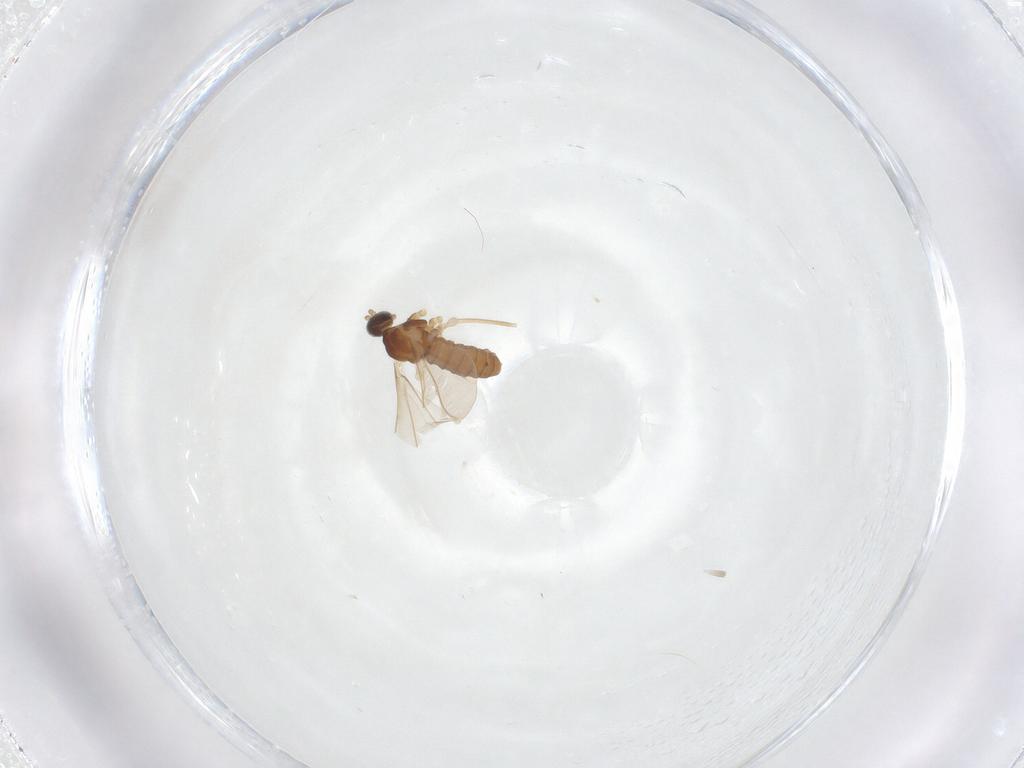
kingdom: Animalia
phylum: Arthropoda
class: Insecta
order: Diptera
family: Cecidomyiidae
